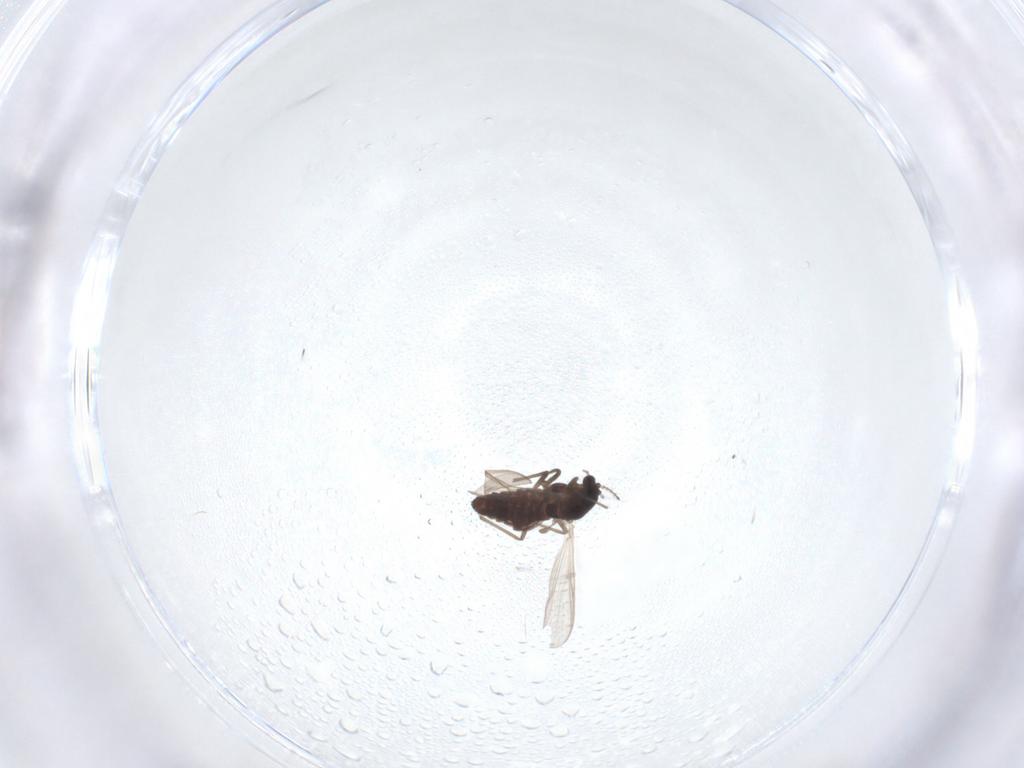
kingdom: Animalia
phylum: Arthropoda
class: Insecta
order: Diptera
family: Chironomidae
